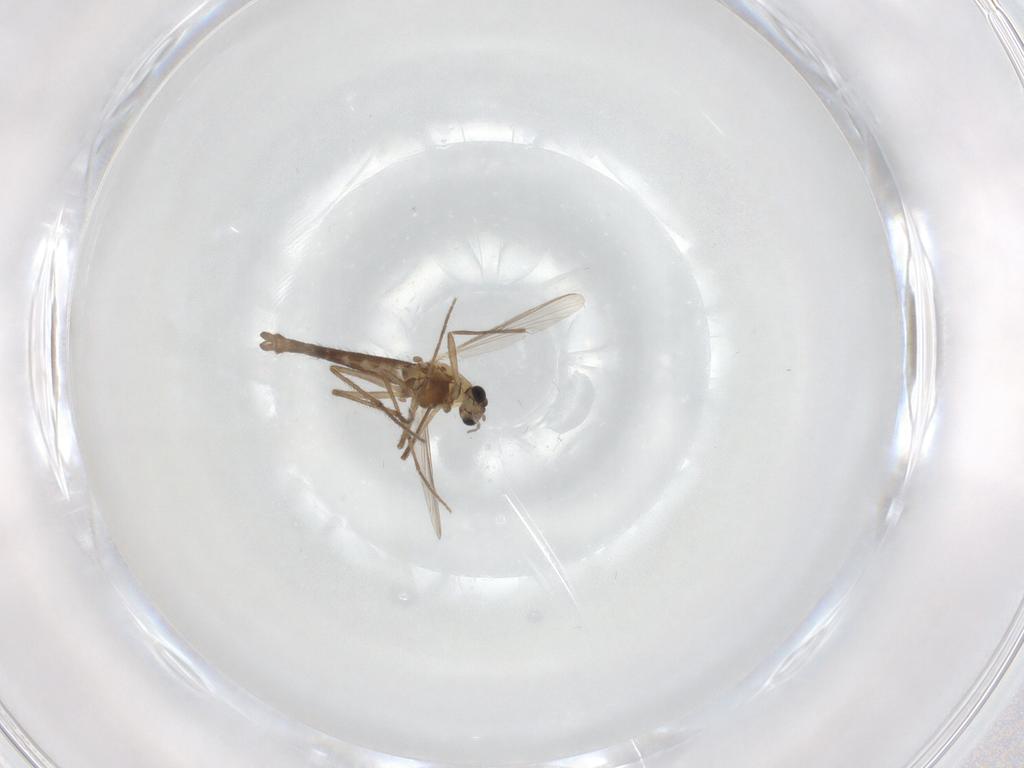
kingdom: Animalia
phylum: Arthropoda
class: Insecta
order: Diptera
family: Chironomidae
